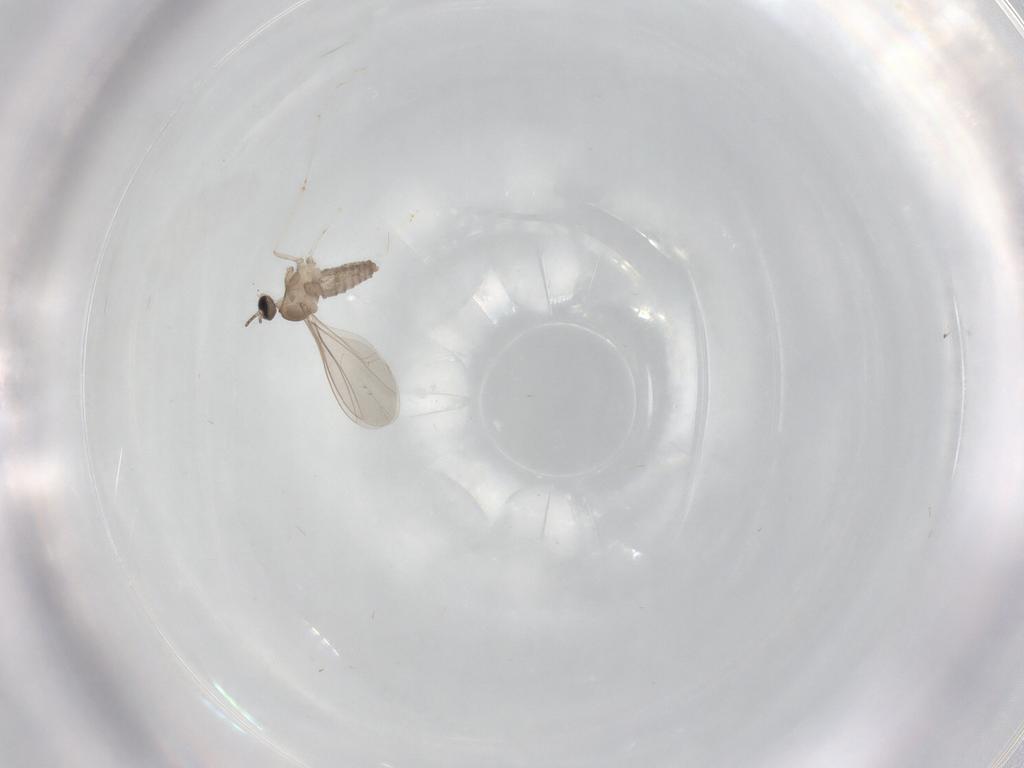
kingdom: Animalia
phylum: Arthropoda
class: Insecta
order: Diptera
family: Cecidomyiidae
